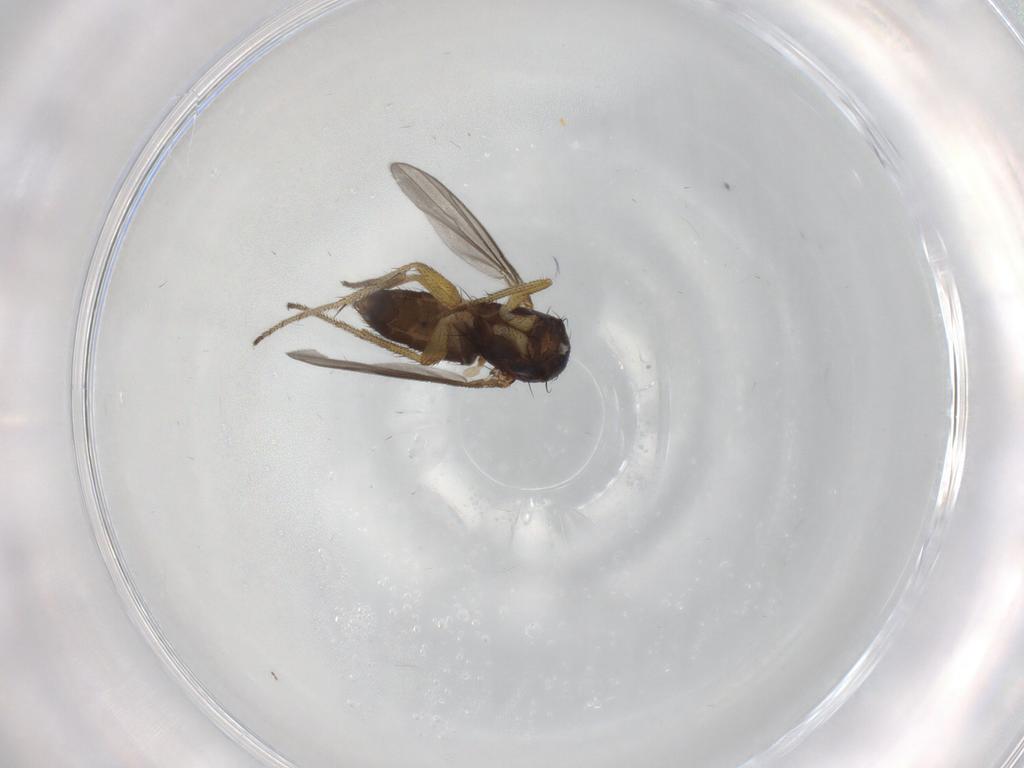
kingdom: Animalia
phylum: Arthropoda
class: Insecta
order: Diptera
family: Dolichopodidae
